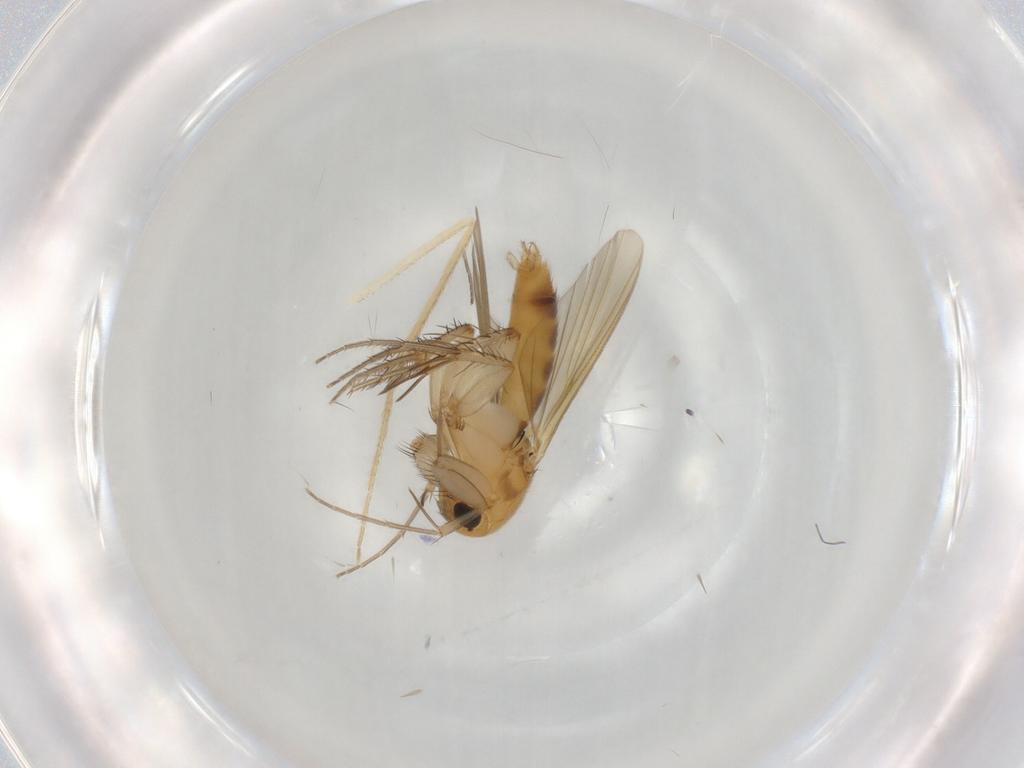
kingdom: Animalia
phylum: Arthropoda
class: Insecta
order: Diptera
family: Mycetophilidae
